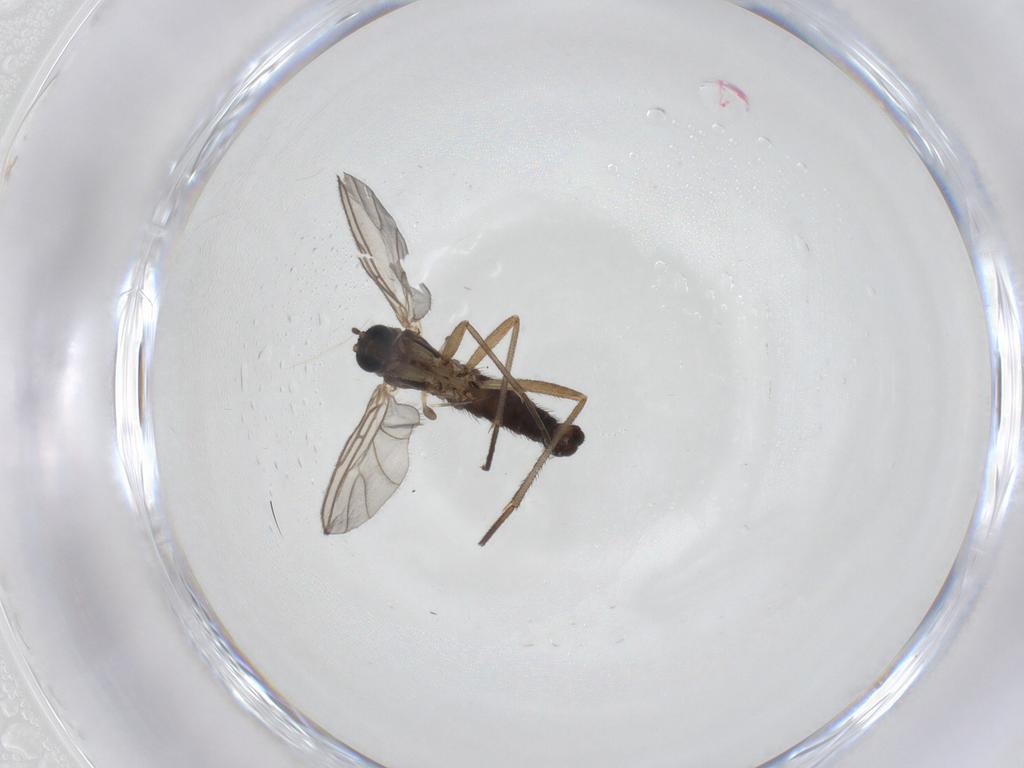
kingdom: Animalia
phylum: Arthropoda
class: Insecta
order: Diptera
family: Sciaridae
